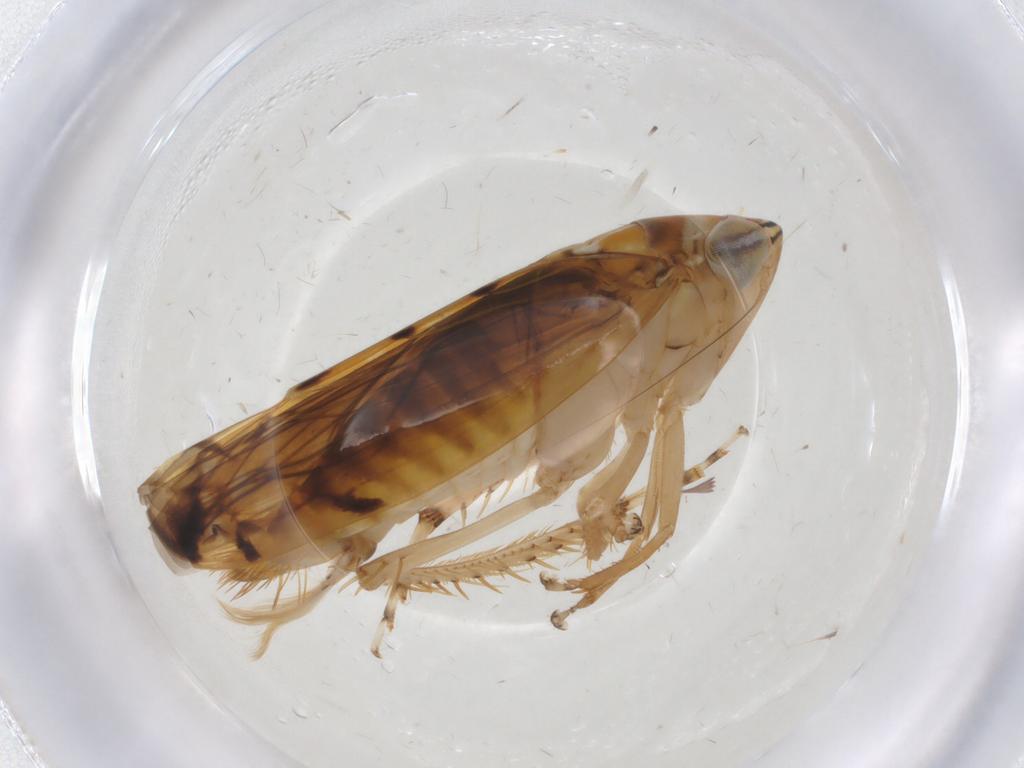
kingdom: Animalia
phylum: Arthropoda
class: Insecta
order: Hemiptera
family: Cercopidae
